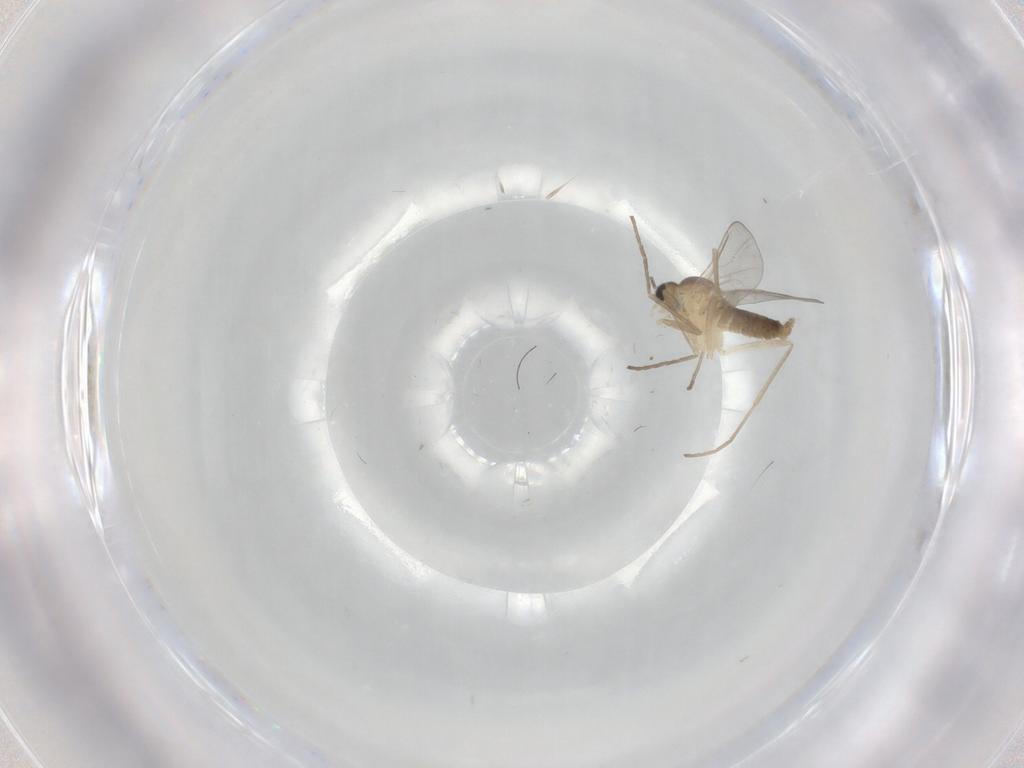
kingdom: Animalia
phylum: Arthropoda
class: Insecta
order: Diptera
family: Cecidomyiidae
